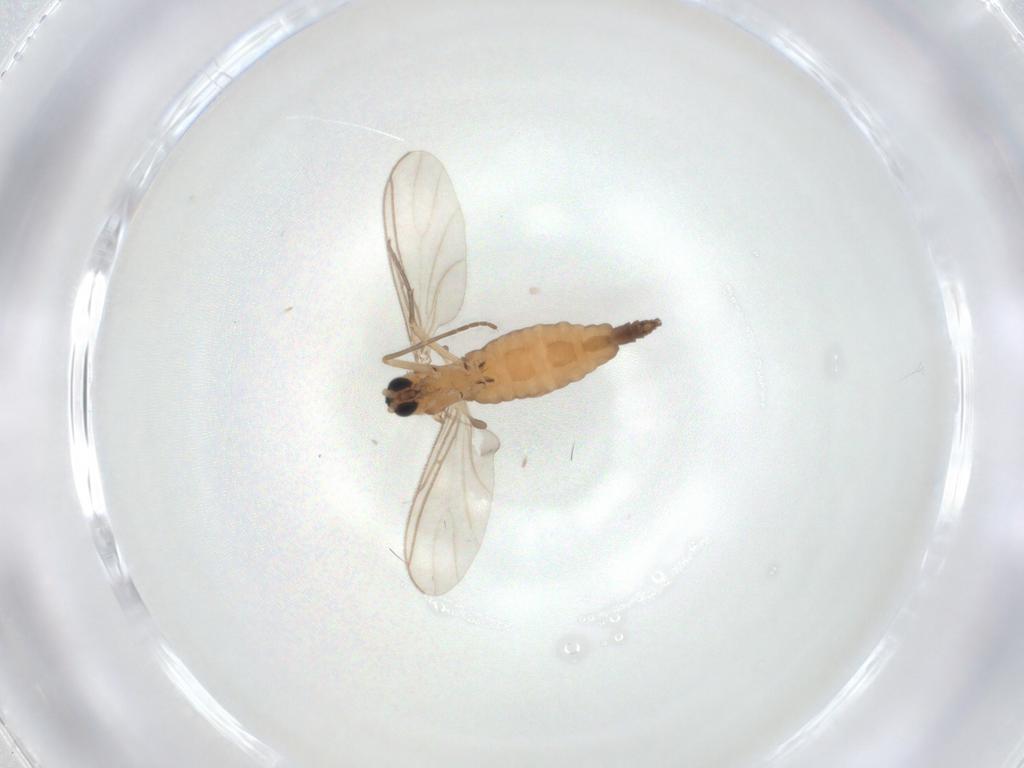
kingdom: Animalia
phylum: Arthropoda
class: Insecta
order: Diptera
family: Sciaridae
